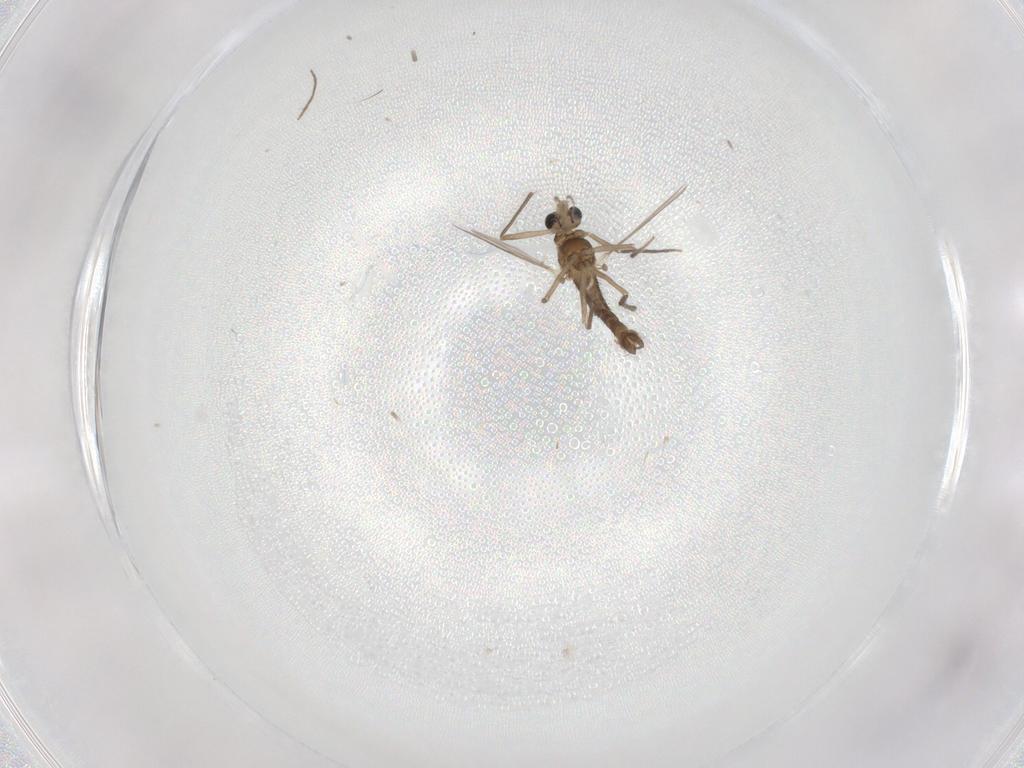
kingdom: Animalia
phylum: Arthropoda
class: Insecta
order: Diptera
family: Chironomidae
